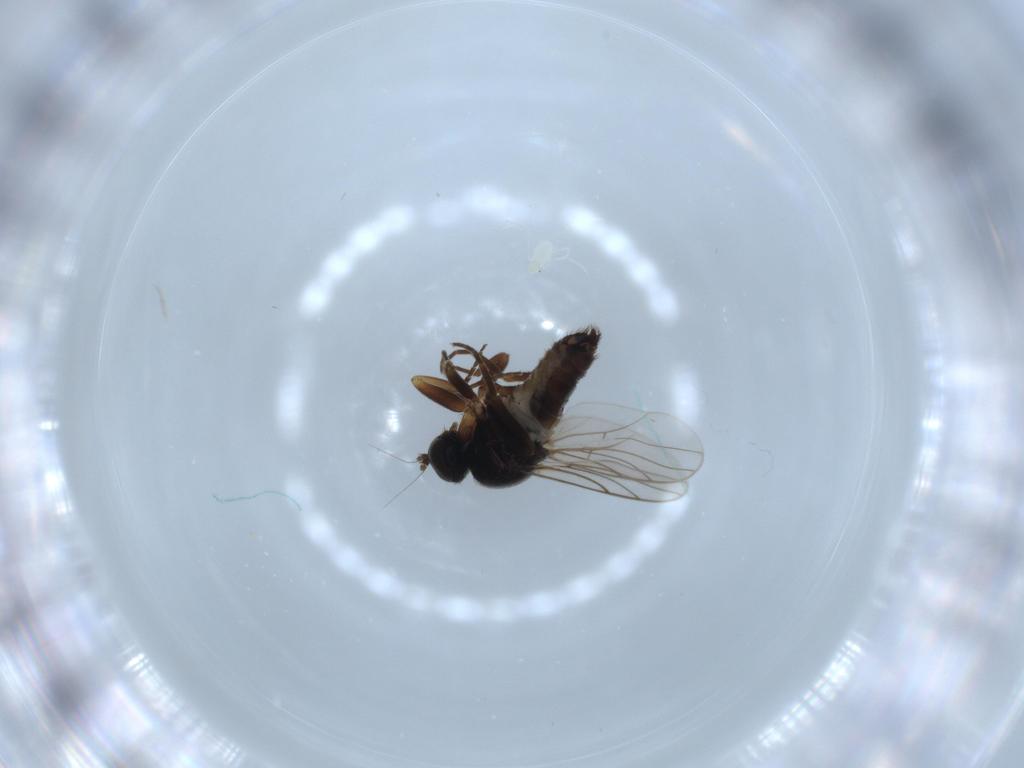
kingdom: Animalia
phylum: Arthropoda
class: Insecta
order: Diptera
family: Hybotidae
